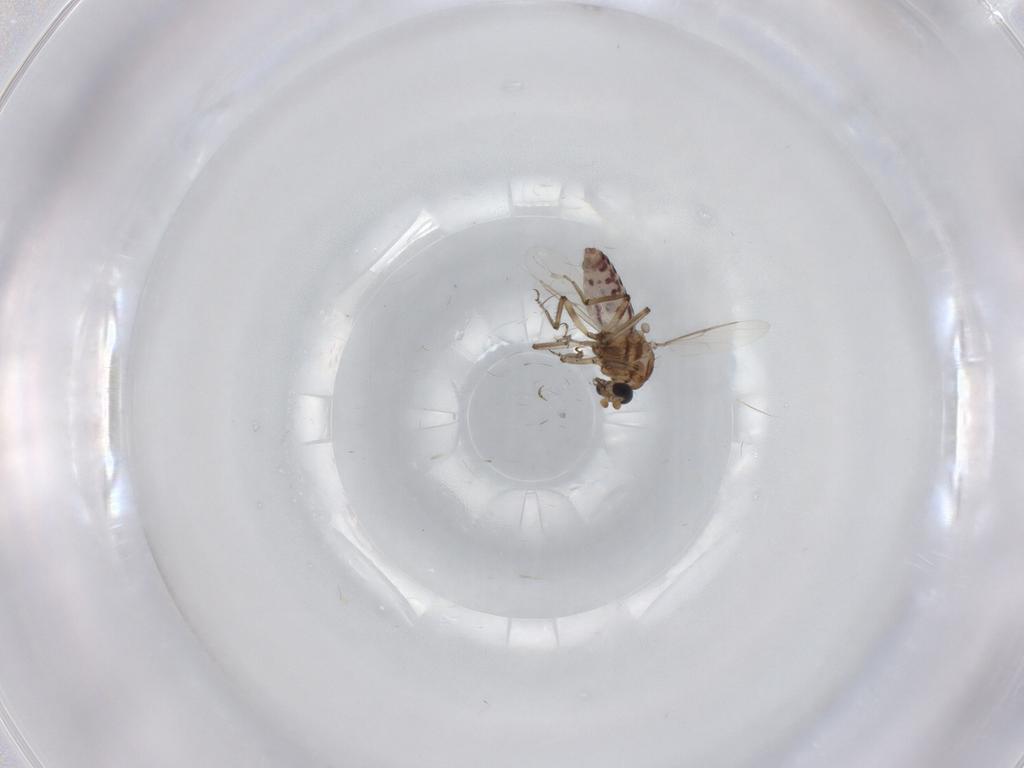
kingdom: Animalia
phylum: Arthropoda
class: Insecta
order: Diptera
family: Ceratopogonidae
